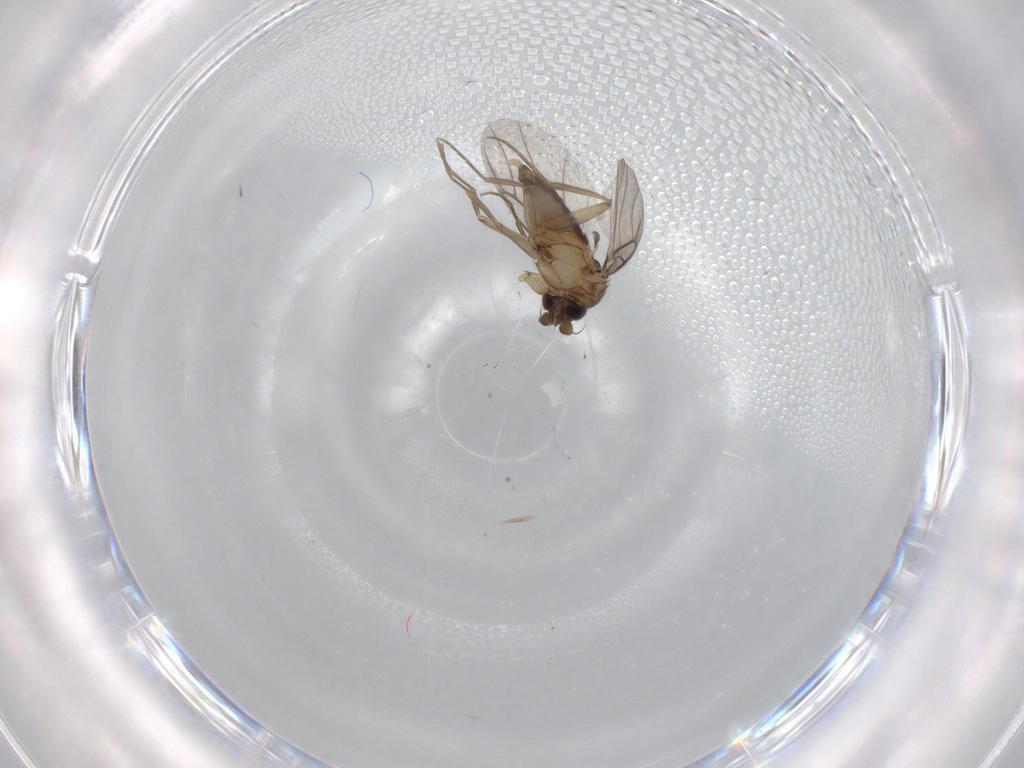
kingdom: Animalia
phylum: Arthropoda
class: Insecta
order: Diptera
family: Phoridae
